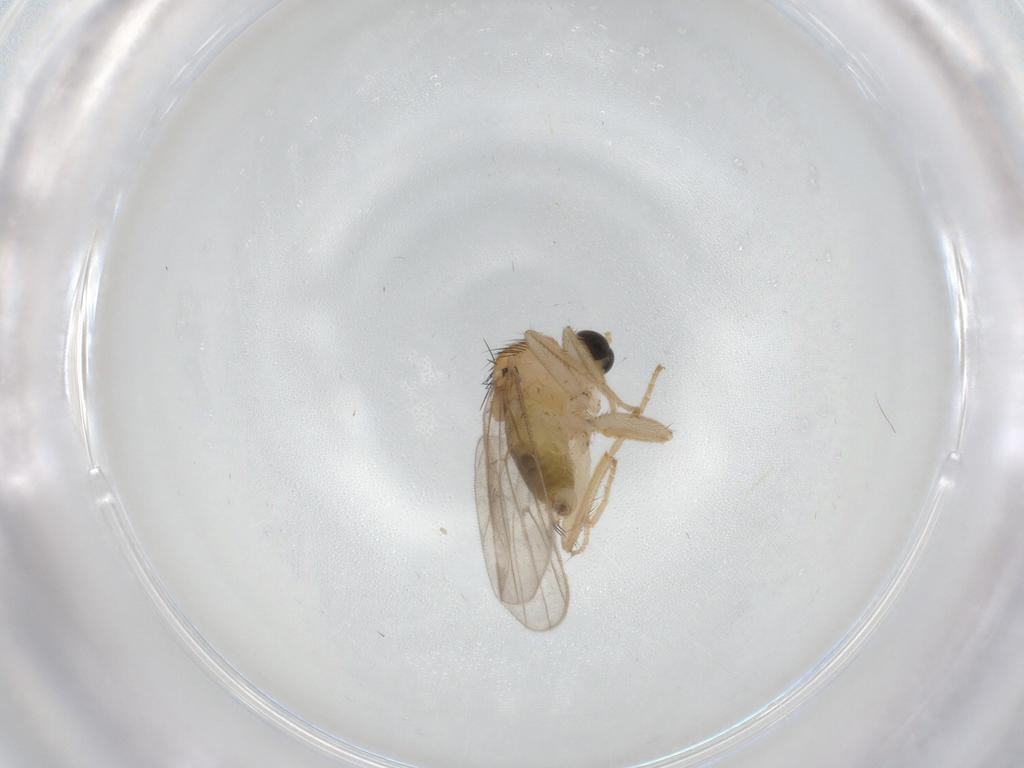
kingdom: Animalia
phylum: Arthropoda
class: Insecta
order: Diptera
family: Hybotidae
